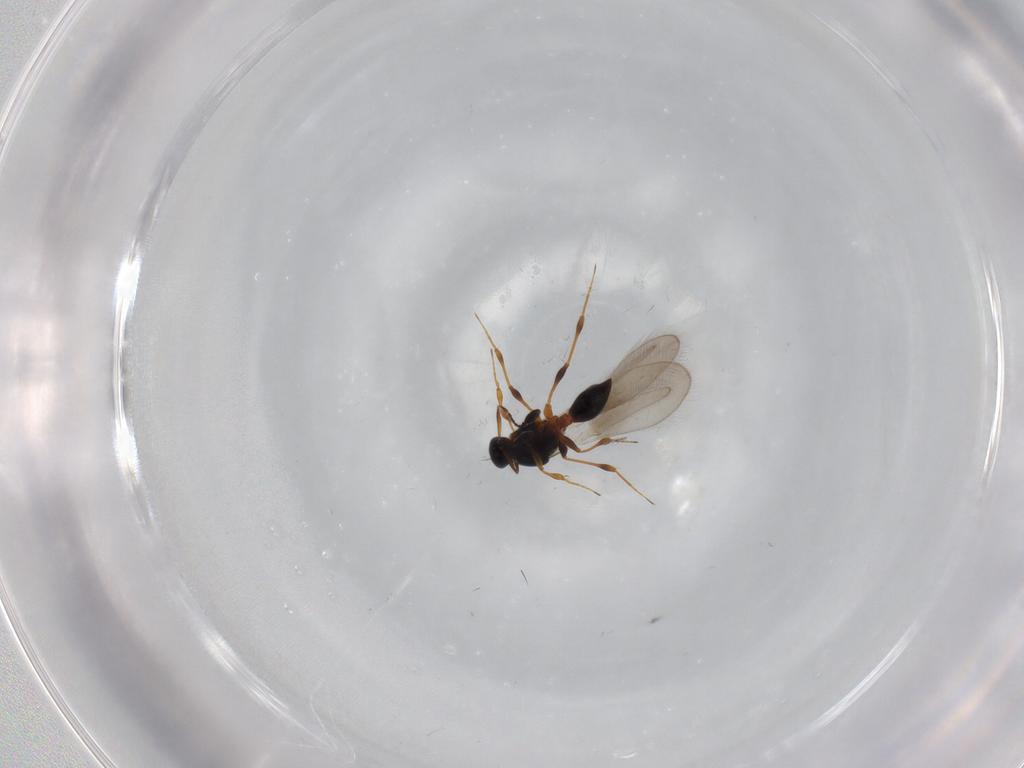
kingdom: Animalia
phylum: Arthropoda
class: Insecta
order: Hymenoptera
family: Platygastridae
